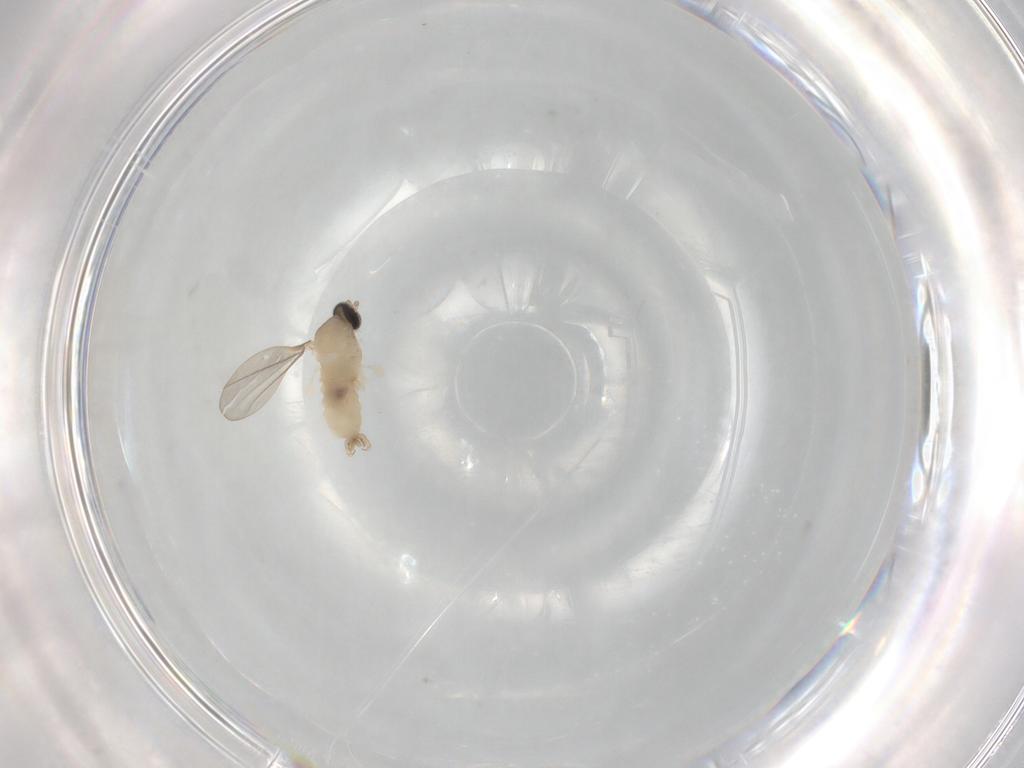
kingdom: Animalia
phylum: Arthropoda
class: Insecta
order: Diptera
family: Cecidomyiidae
